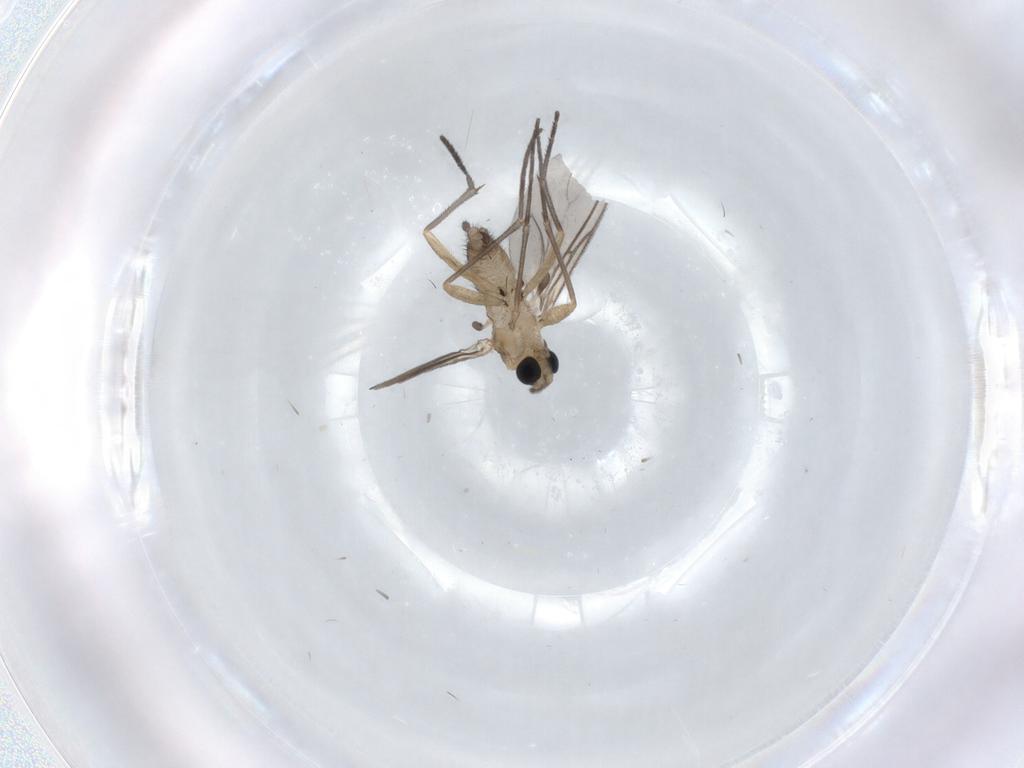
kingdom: Animalia
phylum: Arthropoda
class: Insecta
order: Diptera
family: Sciaridae
